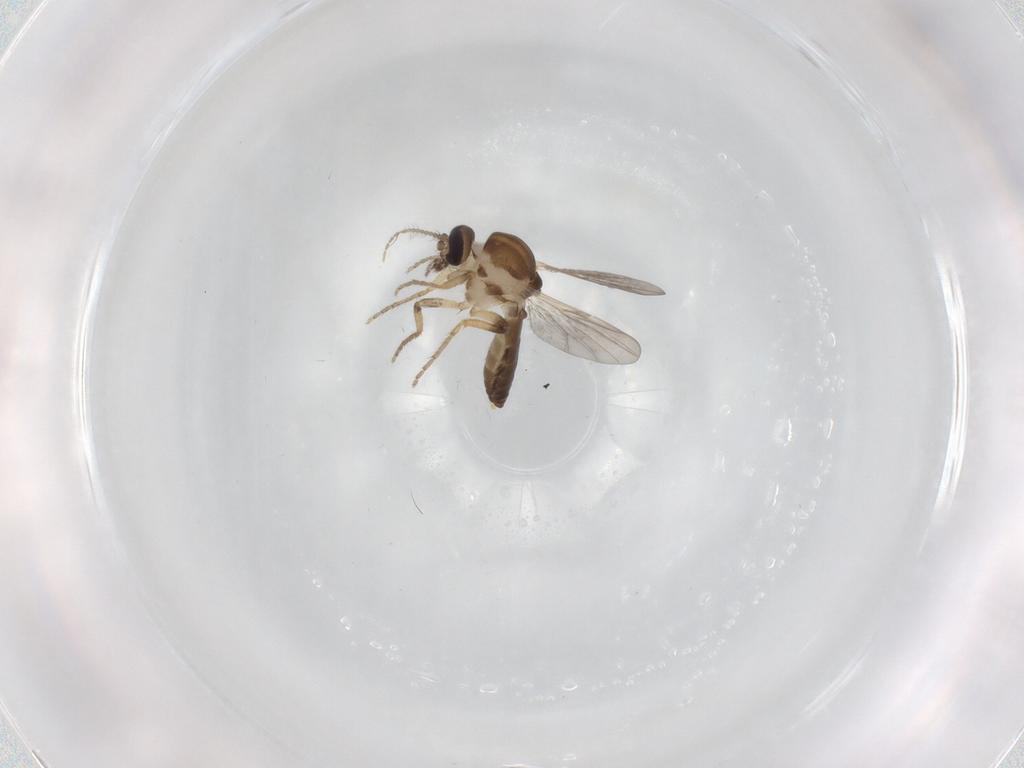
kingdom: Animalia
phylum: Arthropoda
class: Insecta
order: Diptera
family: Ceratopogonidae
